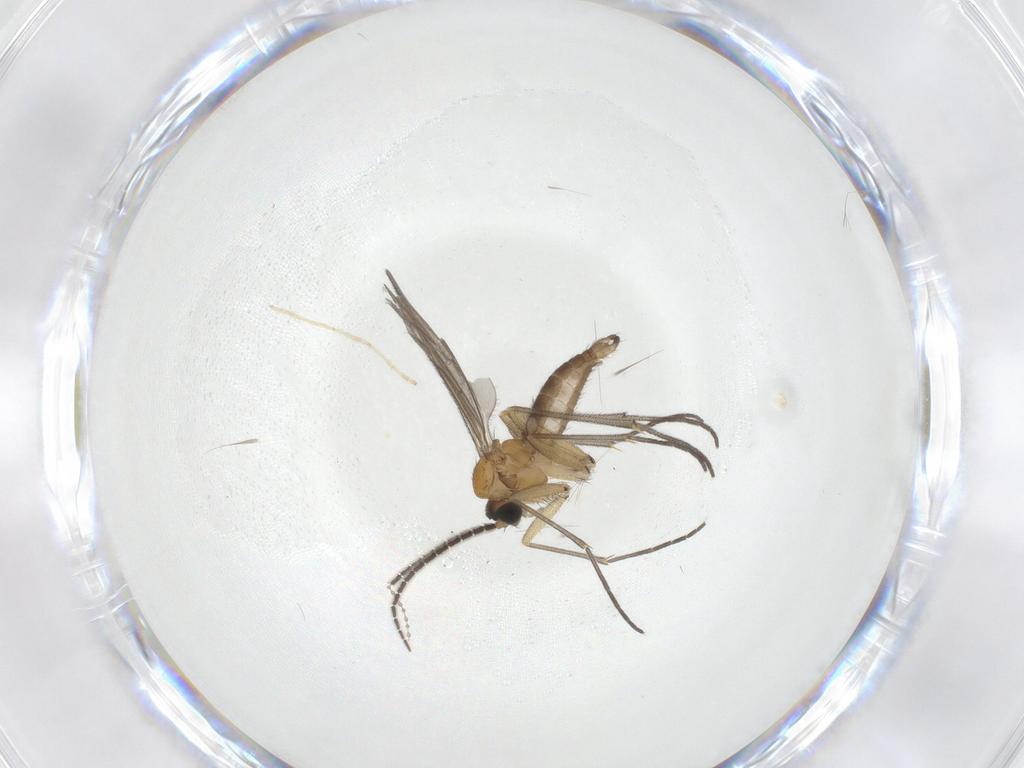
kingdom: Animalia
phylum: Arthropoda
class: Insecta
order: Diptera
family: Sciaridae
